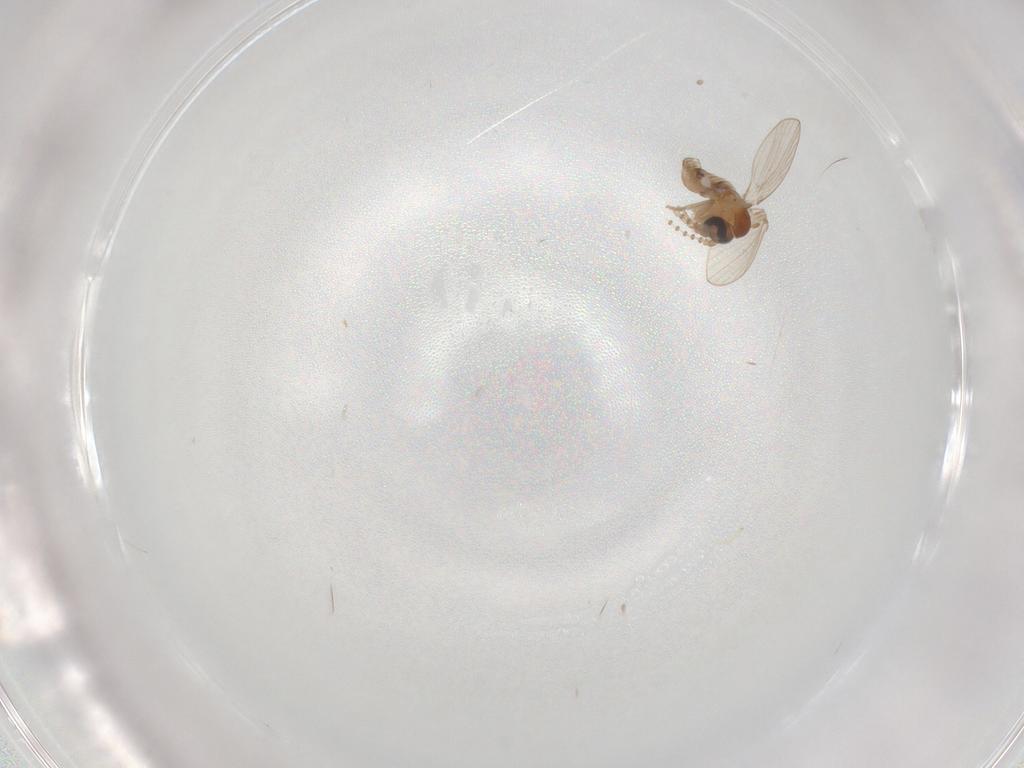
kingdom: Animalia
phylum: Arthropoda
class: Insecta
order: Diptera
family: Psychodidae
